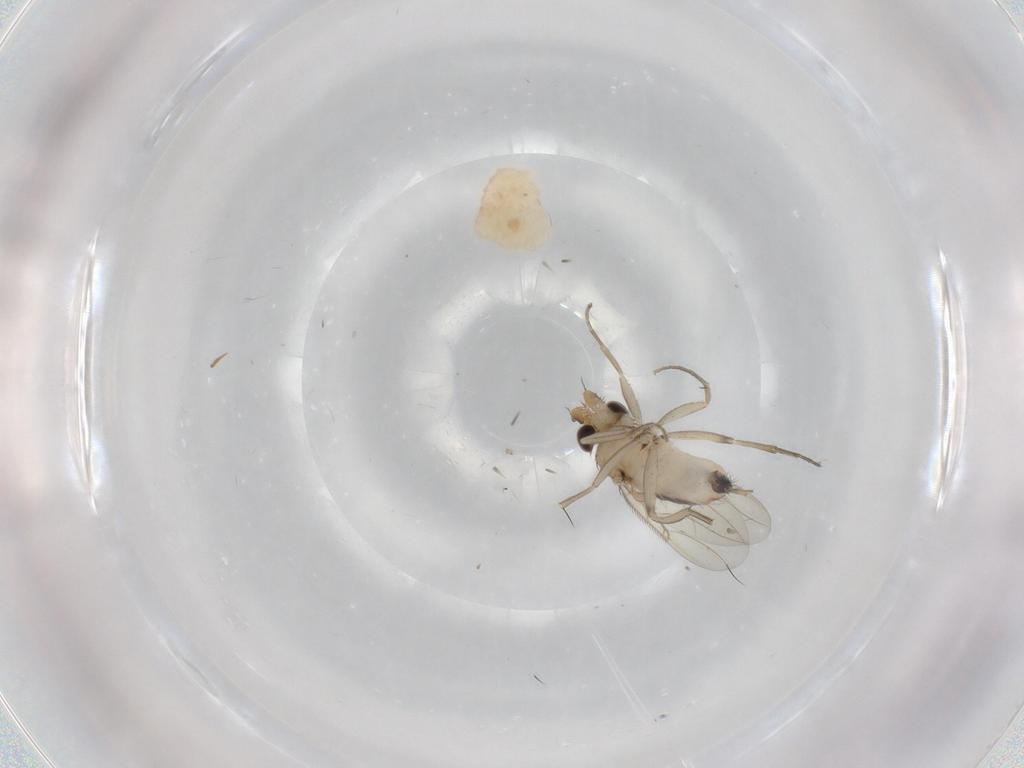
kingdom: Animalia
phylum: Arthropoda
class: Insecta
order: Diptera
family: Phoridae
